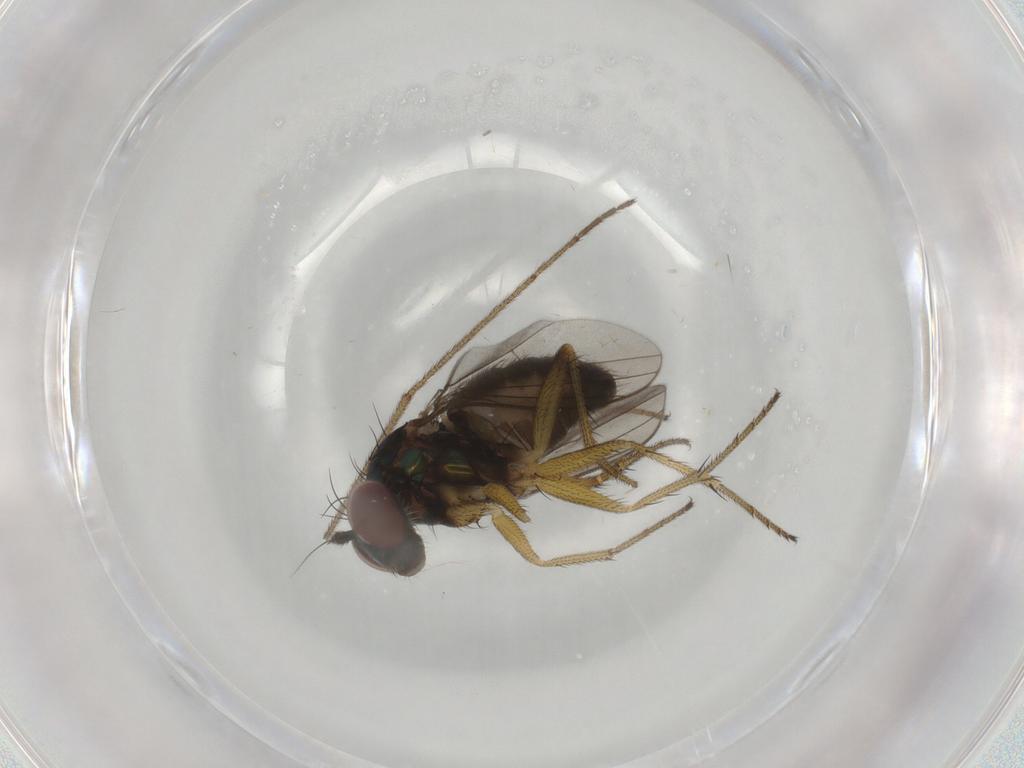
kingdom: Animalia
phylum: Arthropoda
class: Insecta
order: Diptera
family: Dolichopodidae
